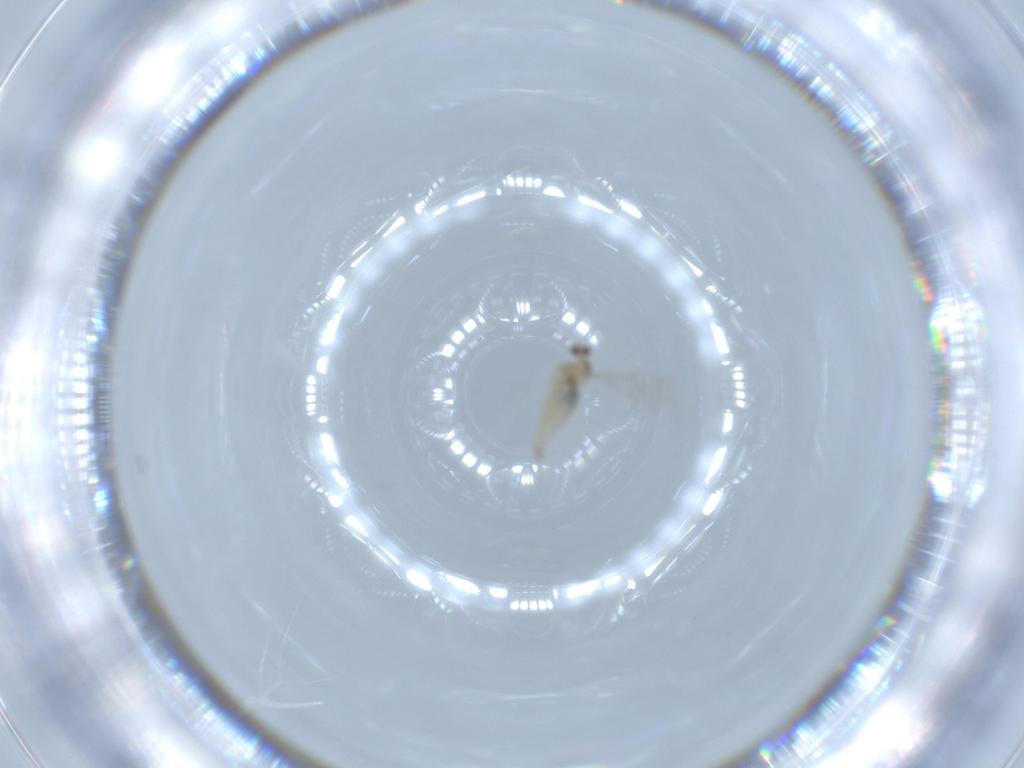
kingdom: Animalia
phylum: Arthropoda
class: Insecta
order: Diptera
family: Cecidomyiidae
